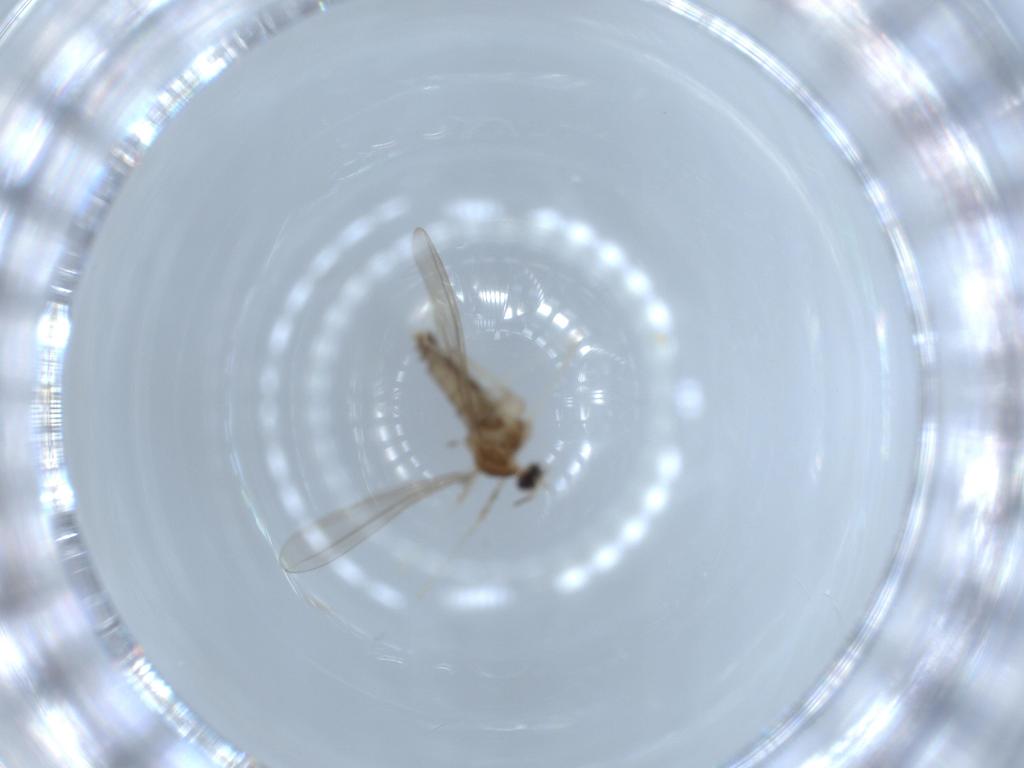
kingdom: Animalia
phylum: Arthropoda
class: Insecta
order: Diptera
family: Cecidomyiidae
